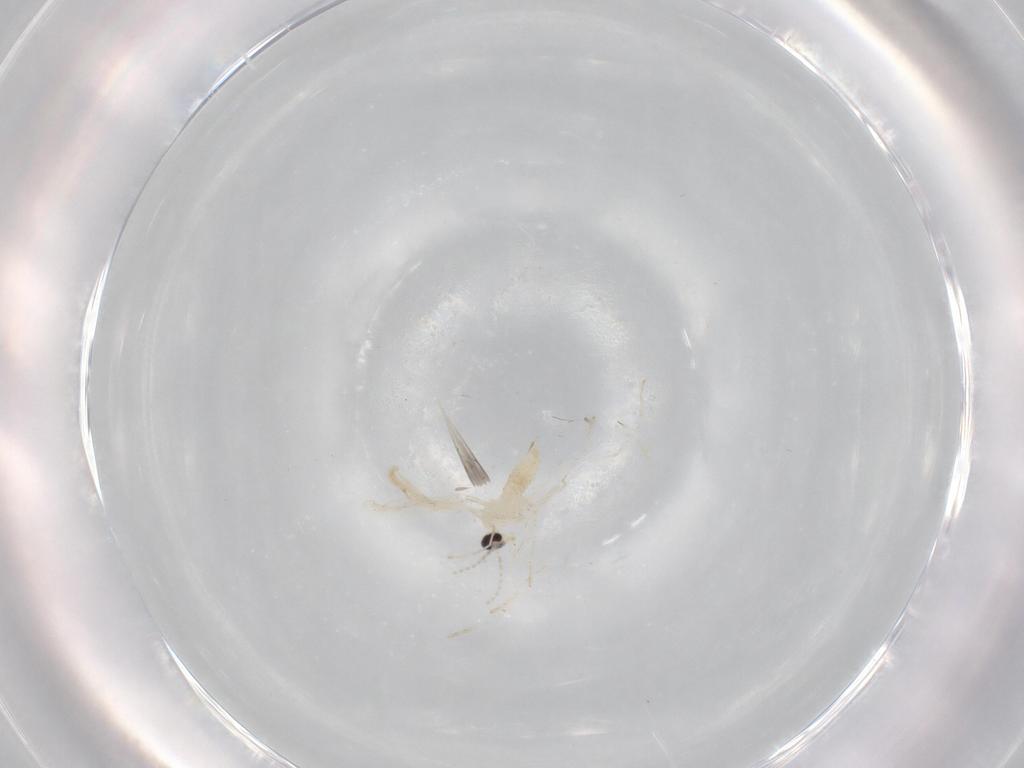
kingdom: Animalia
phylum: Arthropoda
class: Insecta
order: Diptera
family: Cecidomyiidae
